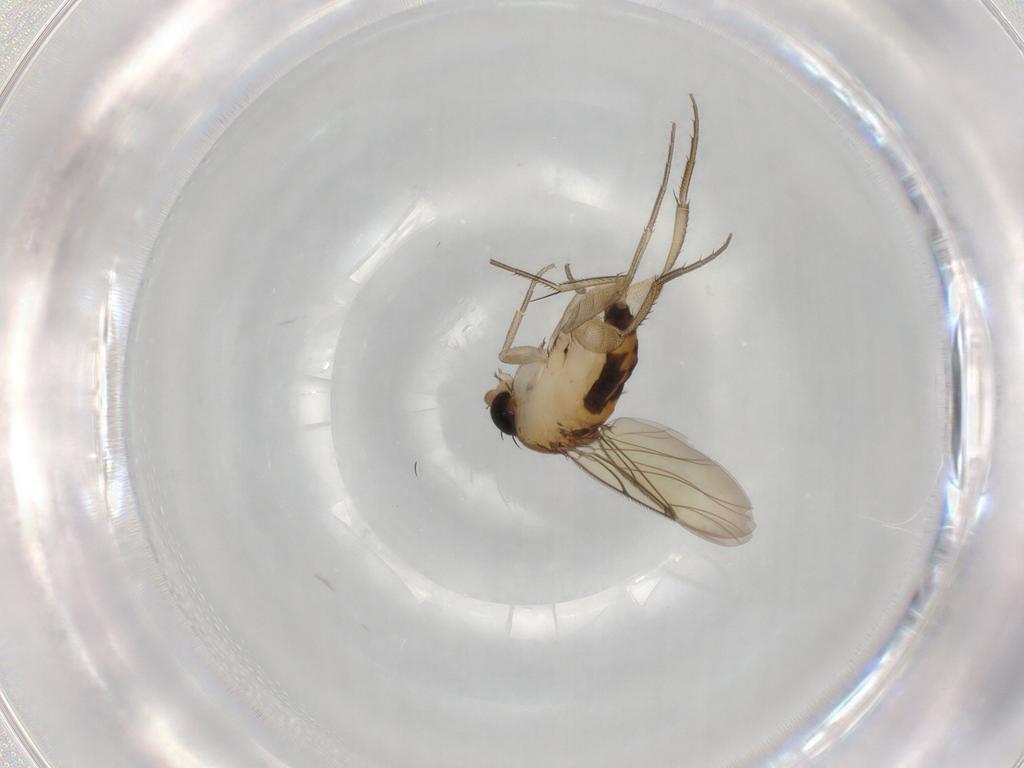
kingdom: Animalia
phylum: Arthropoda
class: Insecta
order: Diptera
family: Phoridae
